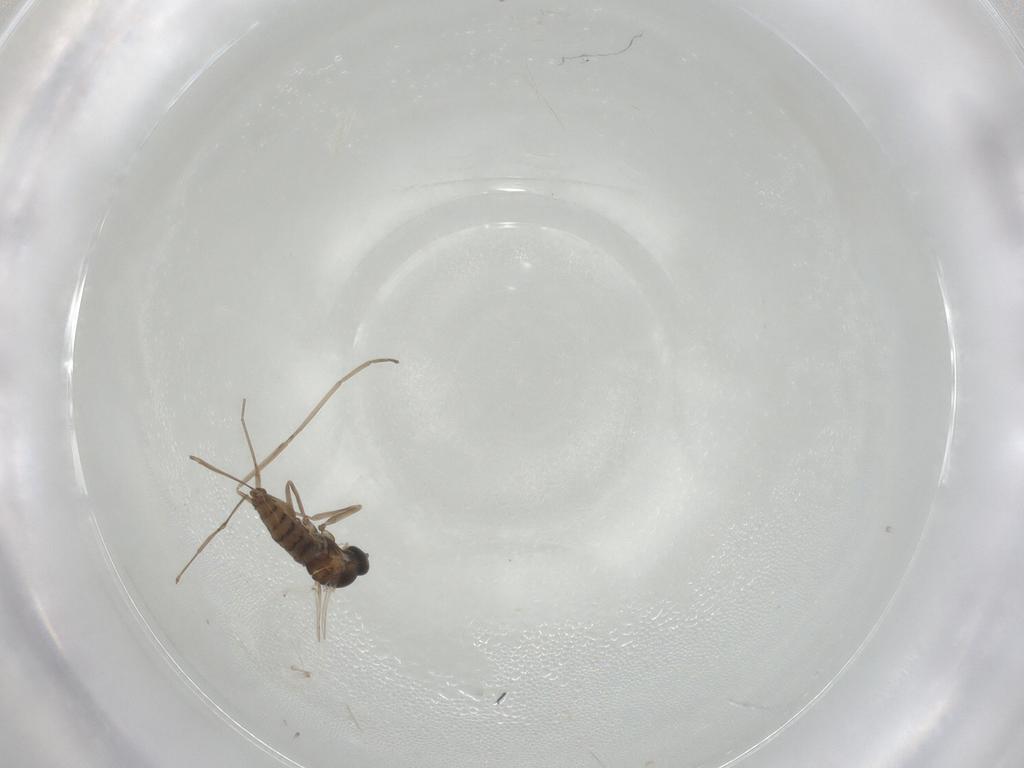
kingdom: Animalia
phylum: Arthropoda
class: Insecta
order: Diptera
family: Cecidomyiidae
